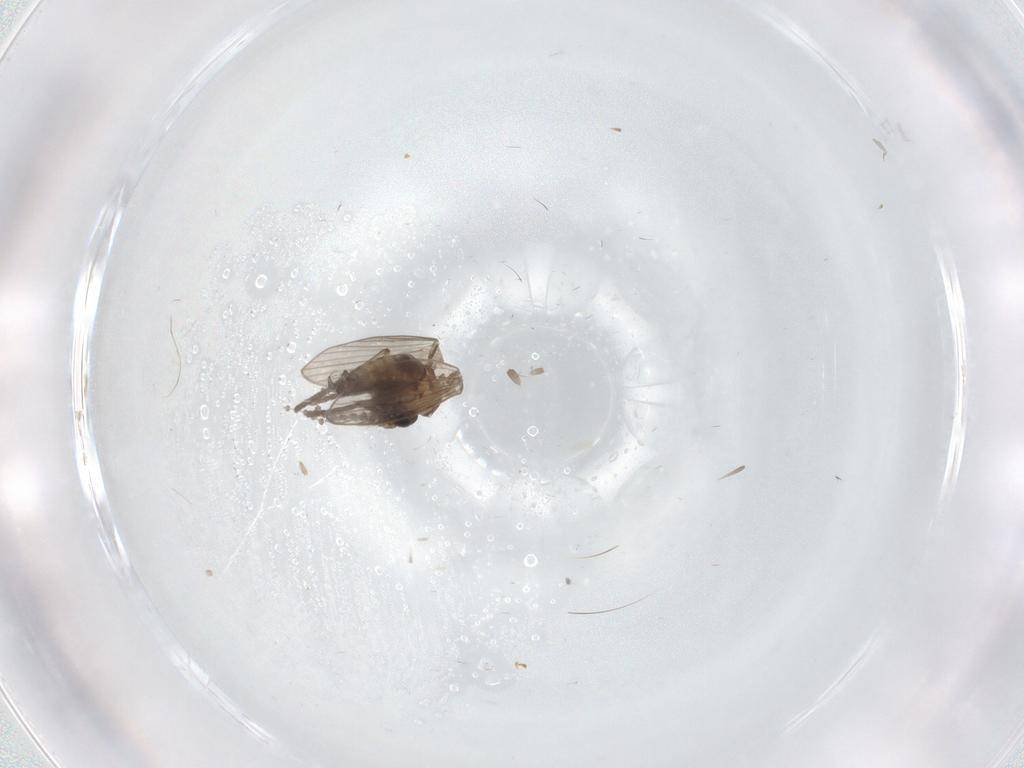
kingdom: Animalia
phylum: Arthropoda
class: Insecta
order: Diptera
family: Psychodidae
